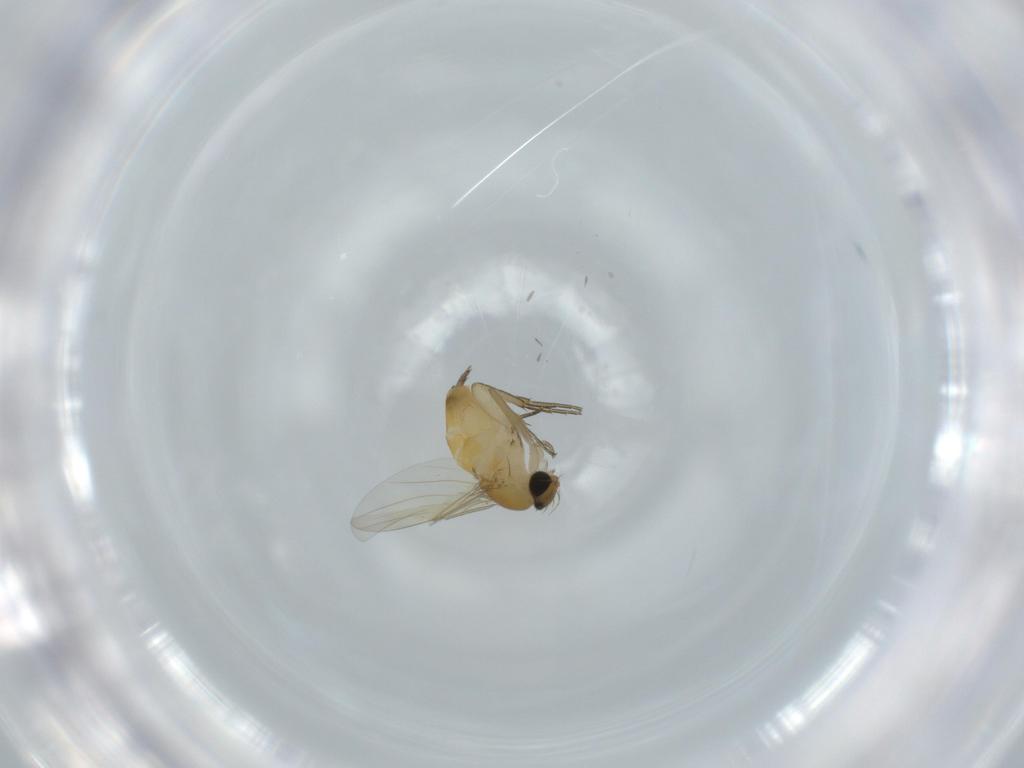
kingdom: Animalia
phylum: Arthropoda
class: Insecta
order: Diptera
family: Phoridae
